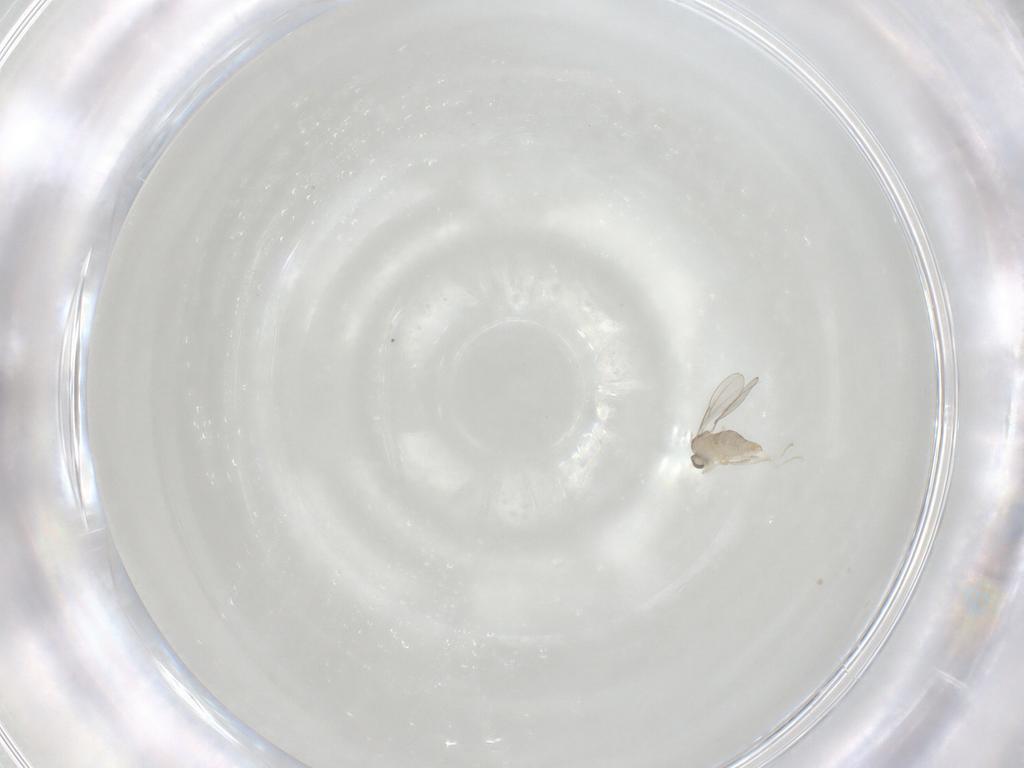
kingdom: Animalia
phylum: Arthropoda
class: Insecta
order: Diptera
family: Cecidomyiidae
